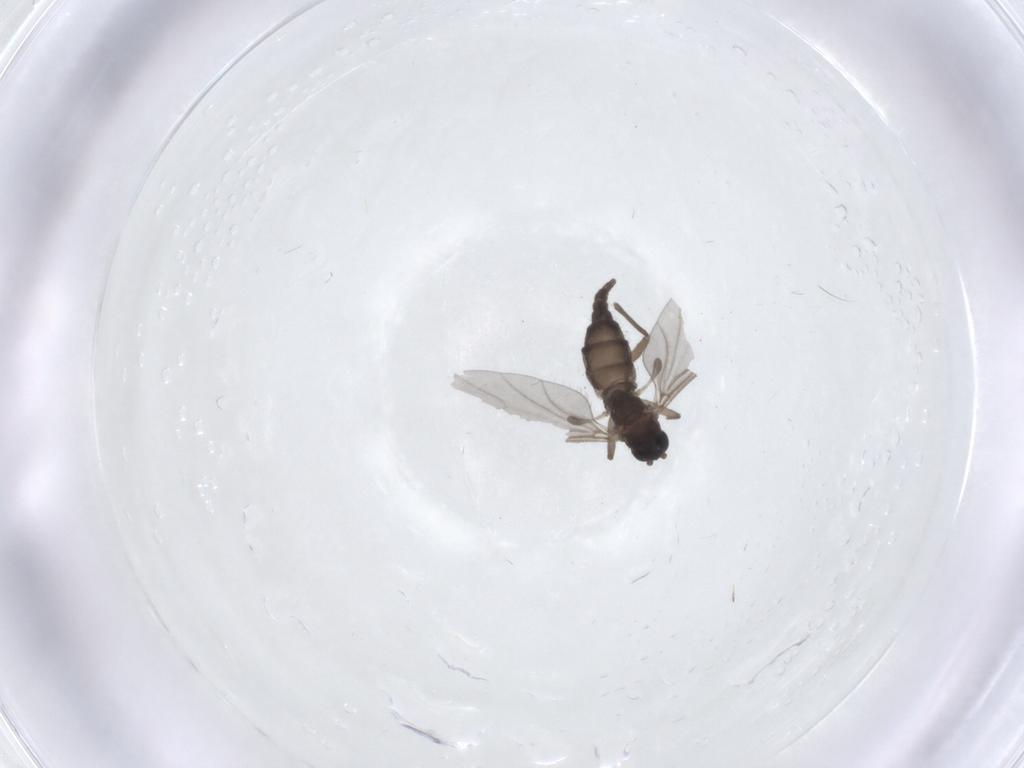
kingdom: Animalia
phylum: Arthropoda
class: Insecta
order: Diptera
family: Sciaridae
